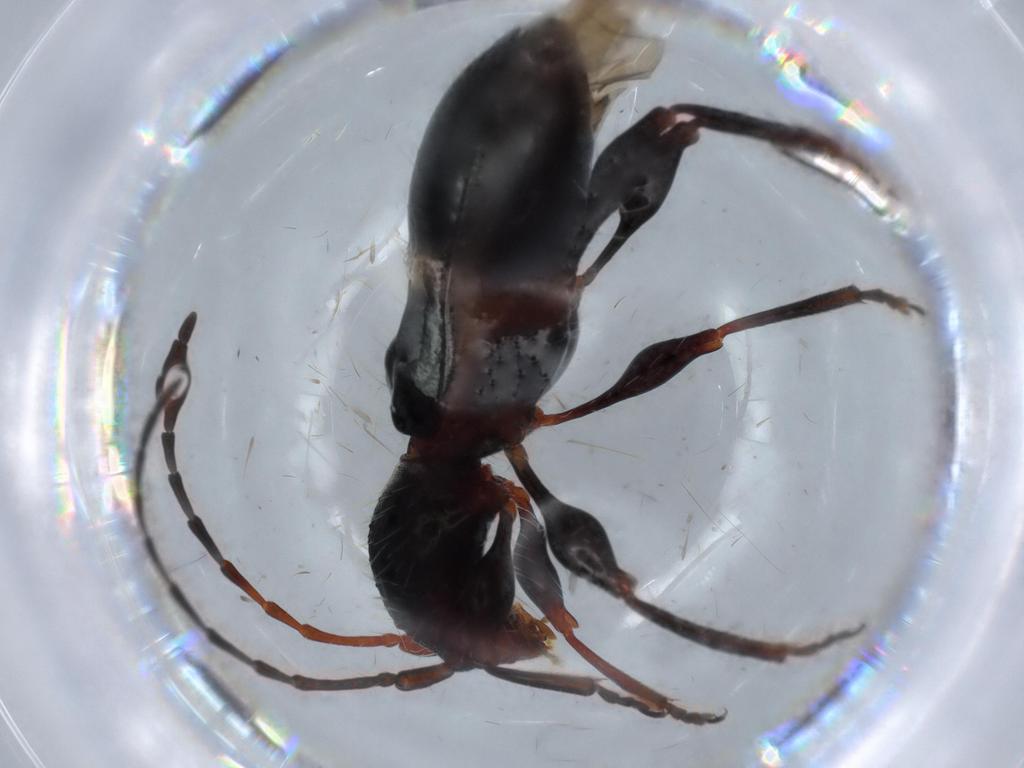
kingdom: Animalia
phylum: Arthropoda
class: Insecta
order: Coleoptera
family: Cerambycidae
